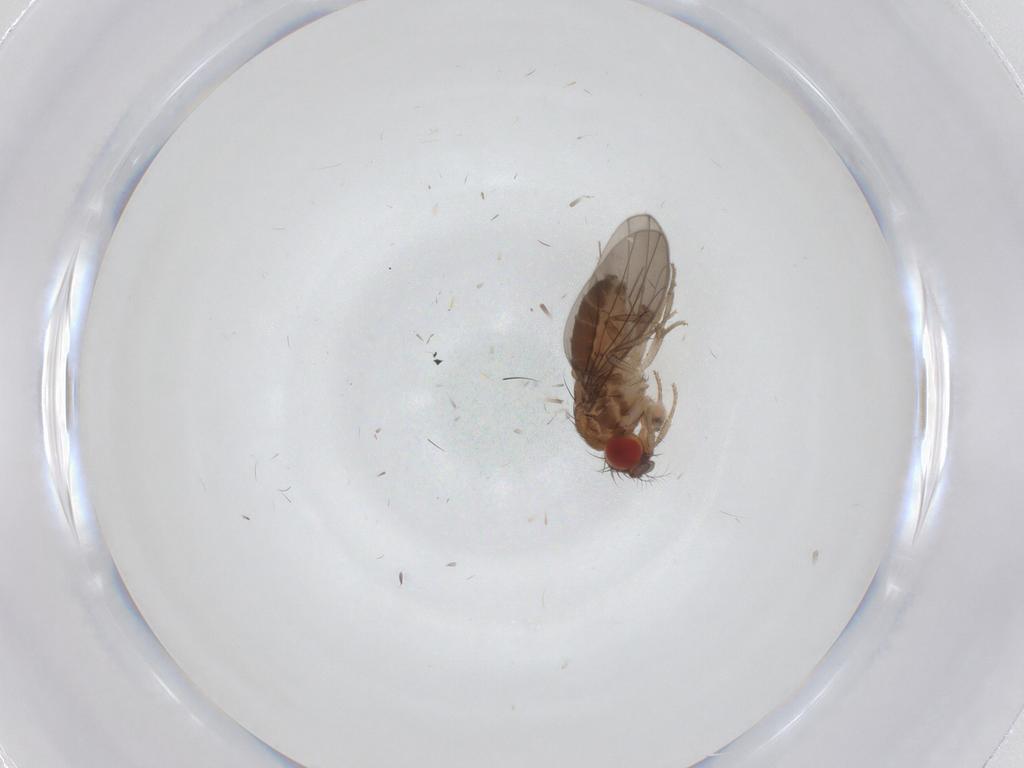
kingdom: Animalia
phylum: Arthropoda
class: Insecta
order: Diptera
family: Drosophilidae
